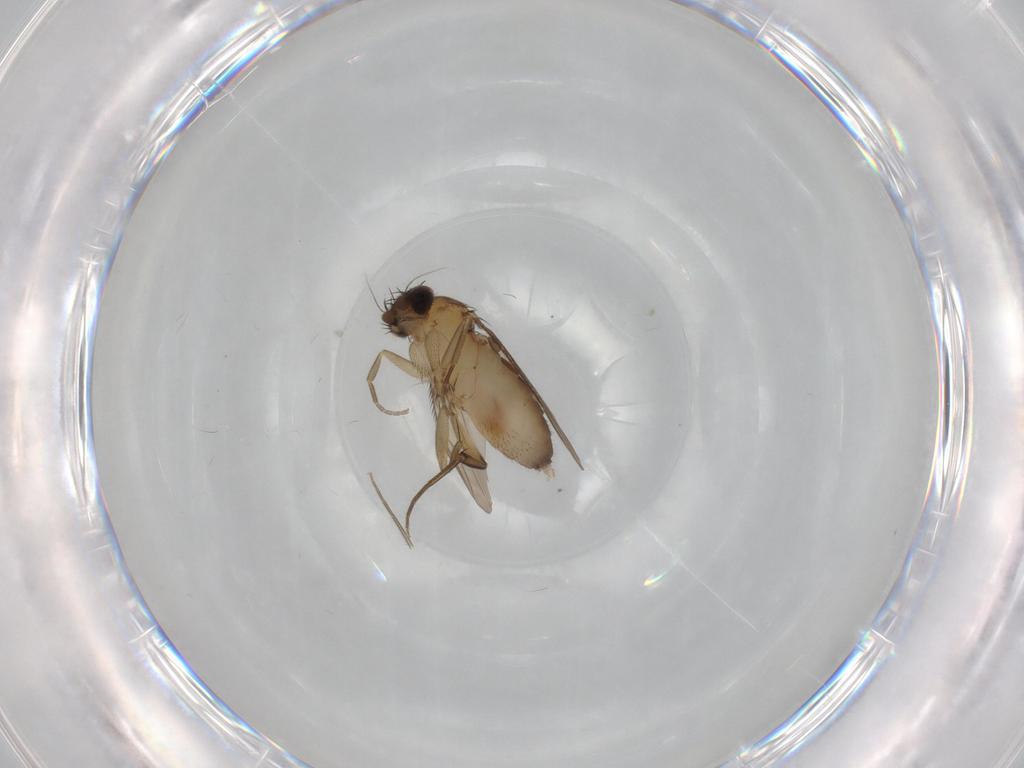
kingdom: Animalia
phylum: Arthropoda
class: Insecta
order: Diptera
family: Phoridae
